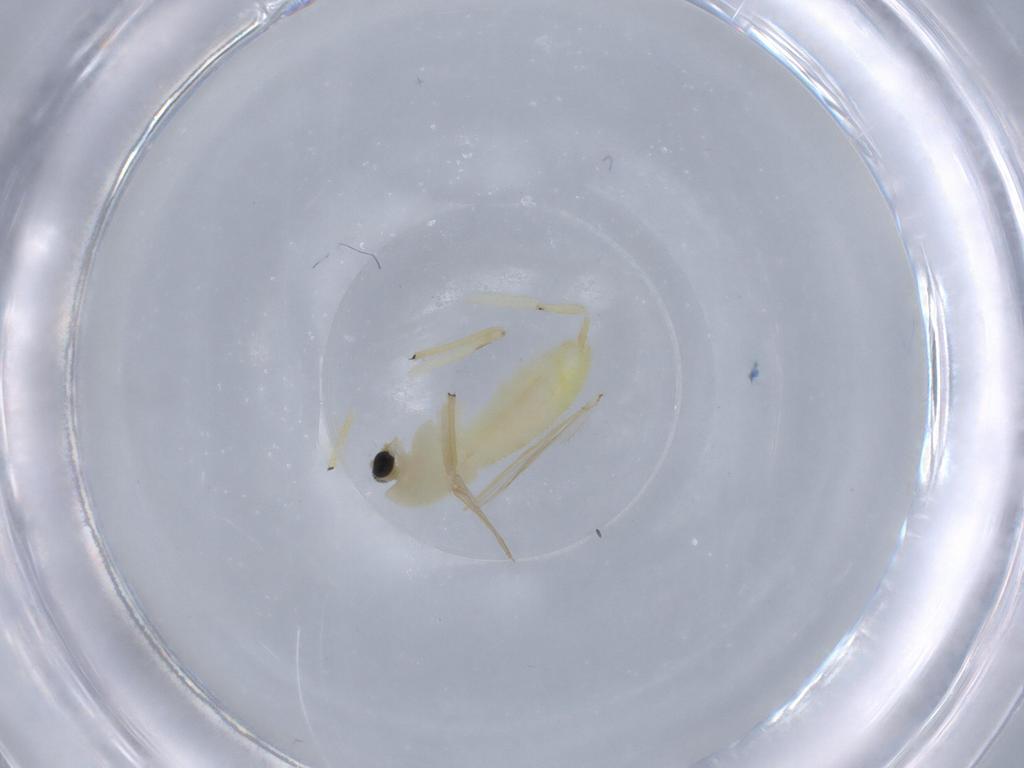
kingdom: Animalia
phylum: Arthropoda
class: Insecta
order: Diptera
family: Chironomidae
